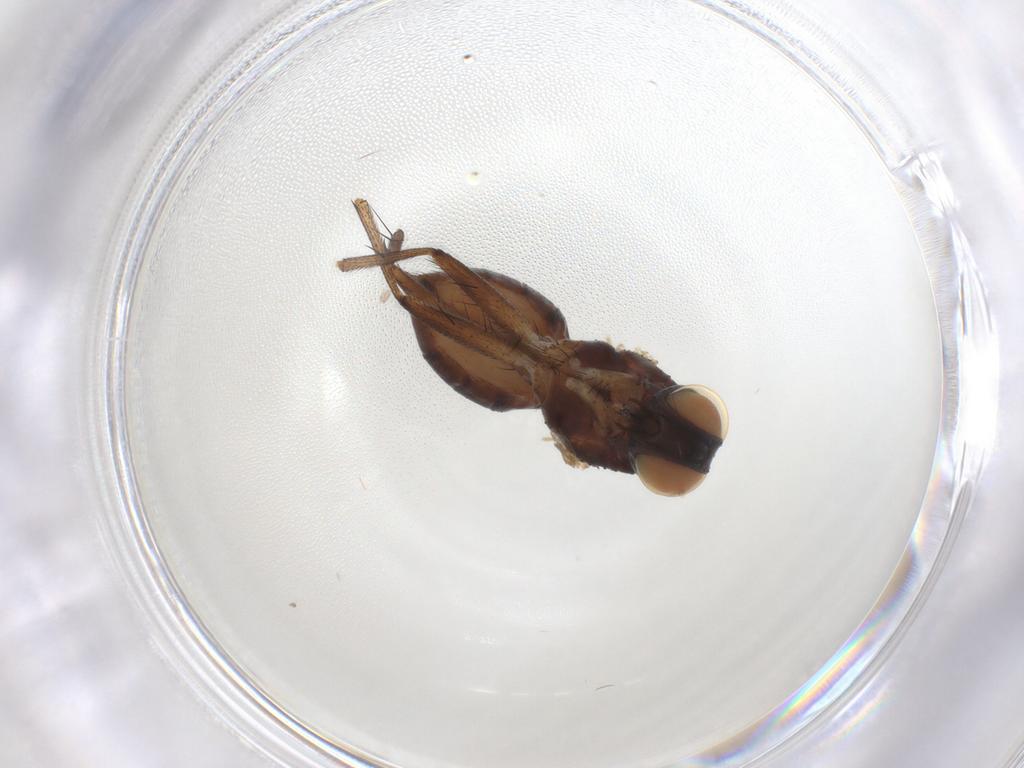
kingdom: Animalia
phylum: Arthropoda
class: Insecta
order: Diptera
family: Muscidae
